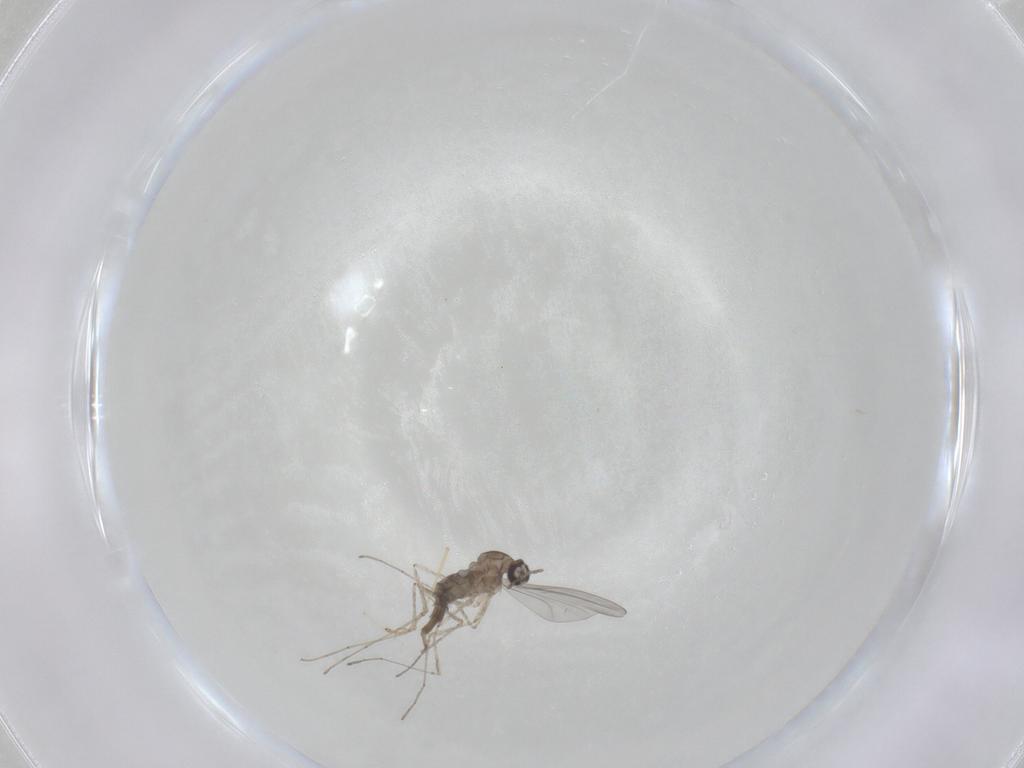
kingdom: Animalia
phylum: Arthropoda
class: Insecta
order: Diptera
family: Cecidomyiidae
